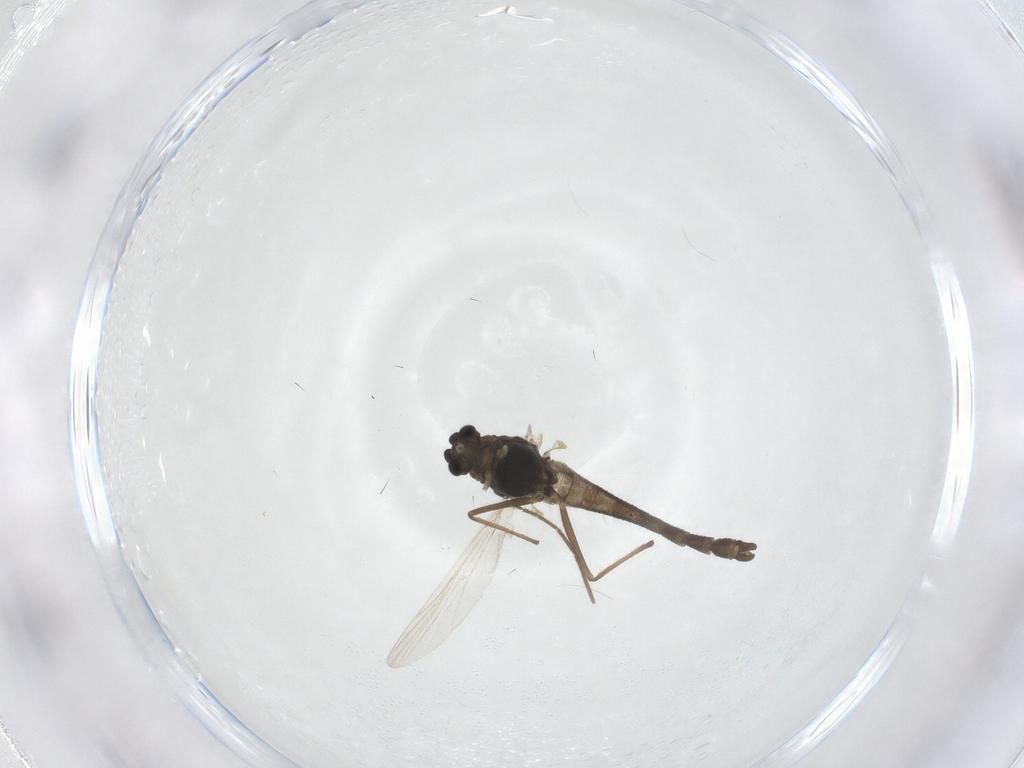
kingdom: Animalia
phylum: Arthropoda
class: Insecta
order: Diptera
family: Chironomidae
